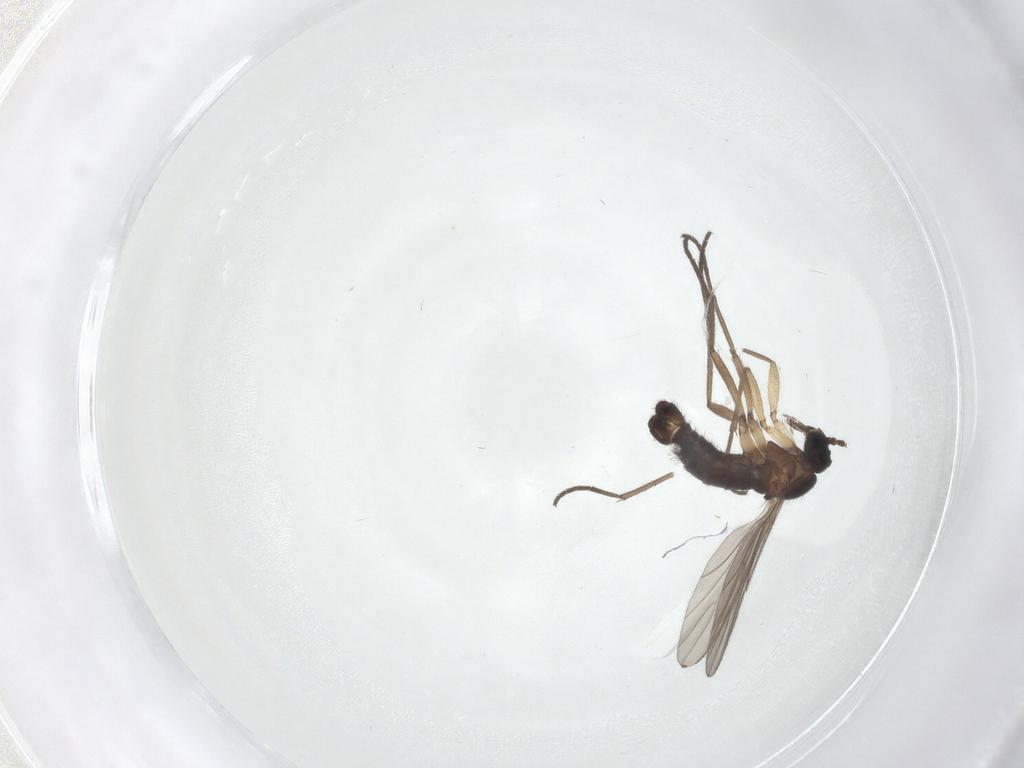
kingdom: Animalia
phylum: Arthropoda
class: Insecta
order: Diptera
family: Sciaridae
